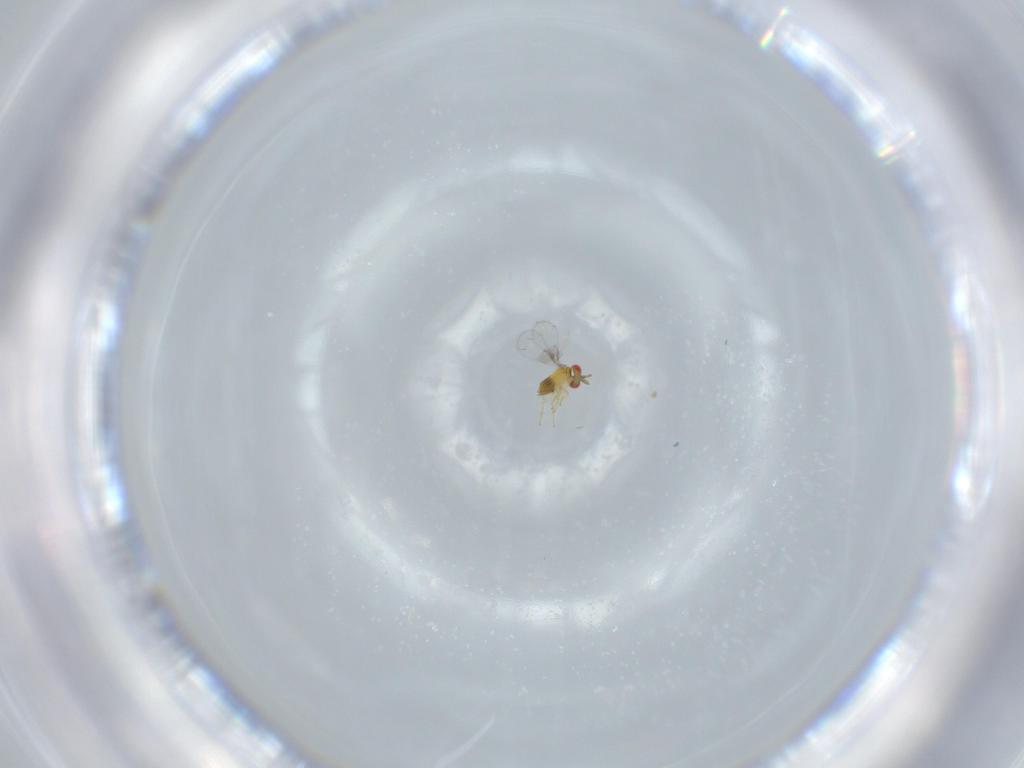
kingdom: Animalia
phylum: Arthropoda
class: Insecta
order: Hymenoptera
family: Trichogrammatidae
